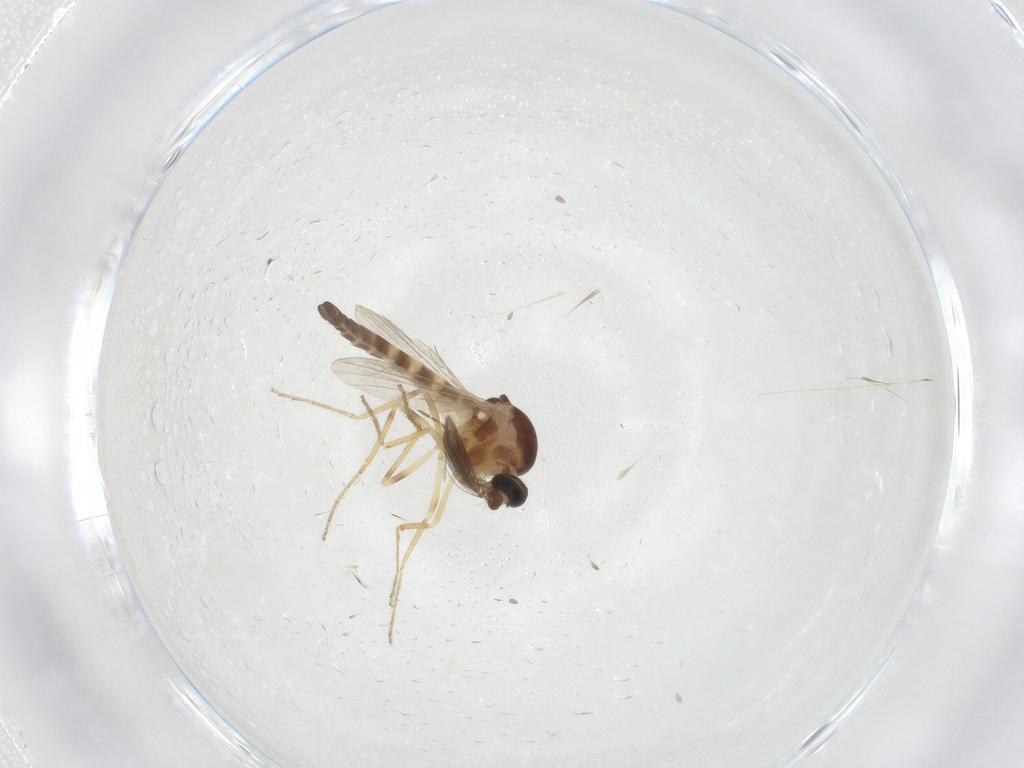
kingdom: Animalia
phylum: Arthropoda
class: Insecta
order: Diptera
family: Ceratopogonidae
